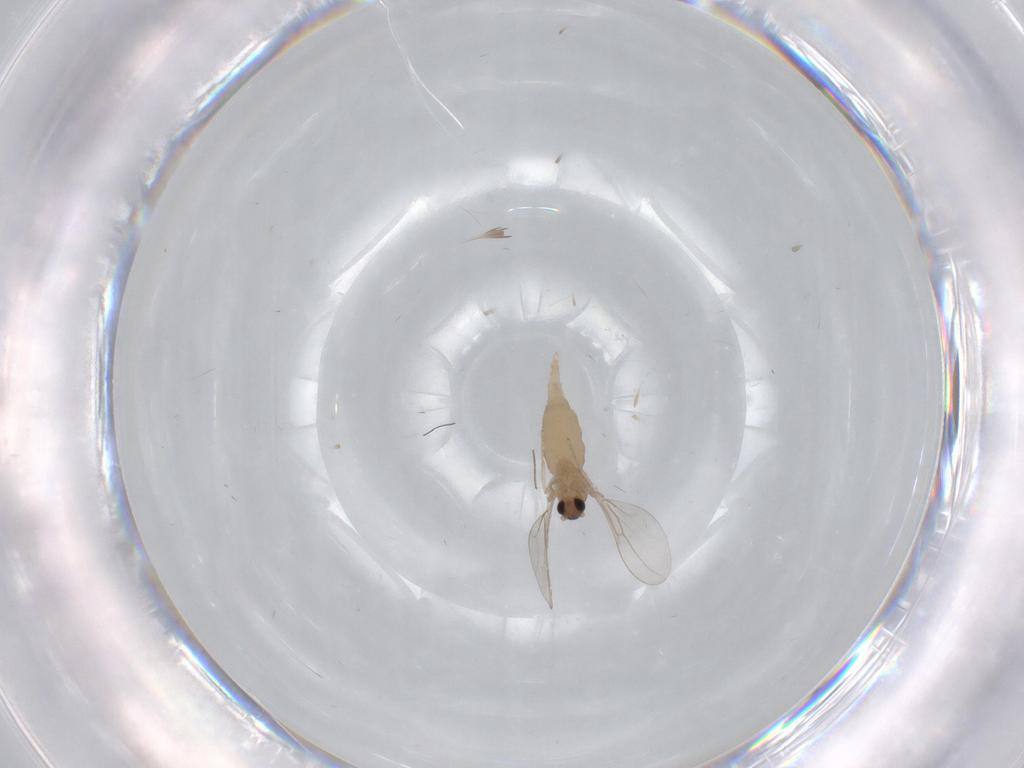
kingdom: Animalia
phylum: Arthropoda
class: Insecta
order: Diptera
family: Cecidomyiidae
